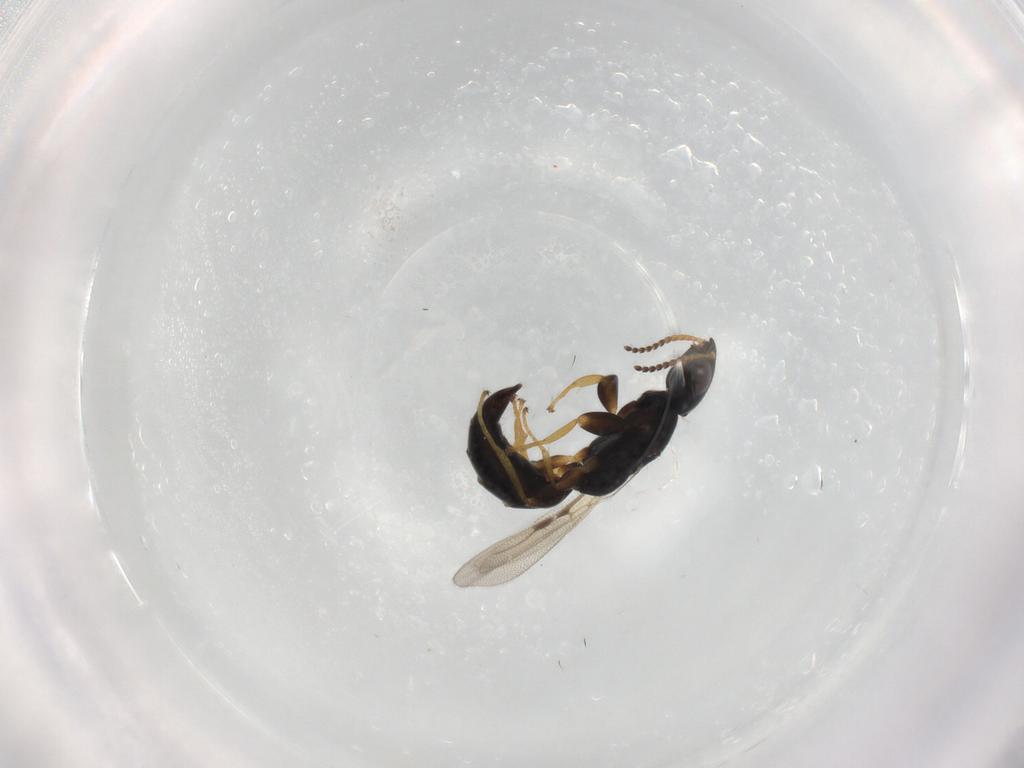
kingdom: Animalia
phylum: Arthropoda
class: Insecta
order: Hymenoptera
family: Bethylidae
